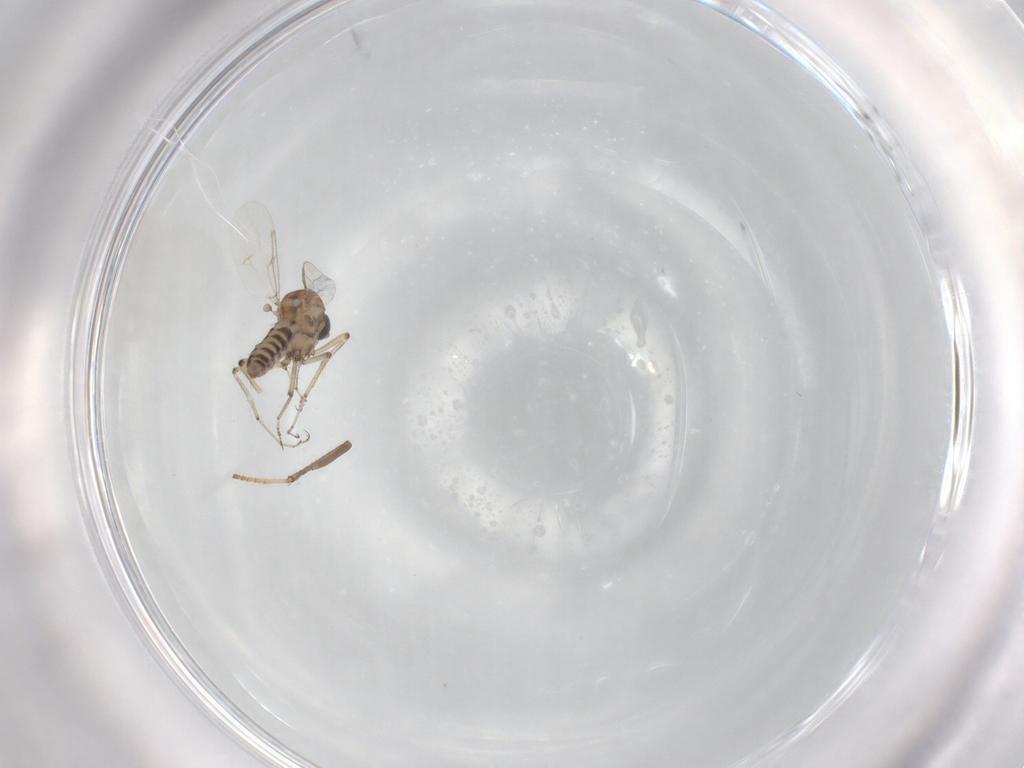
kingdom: Animalia
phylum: Arthropoda
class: Insecta
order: Diptera
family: Ceratopogonidae
